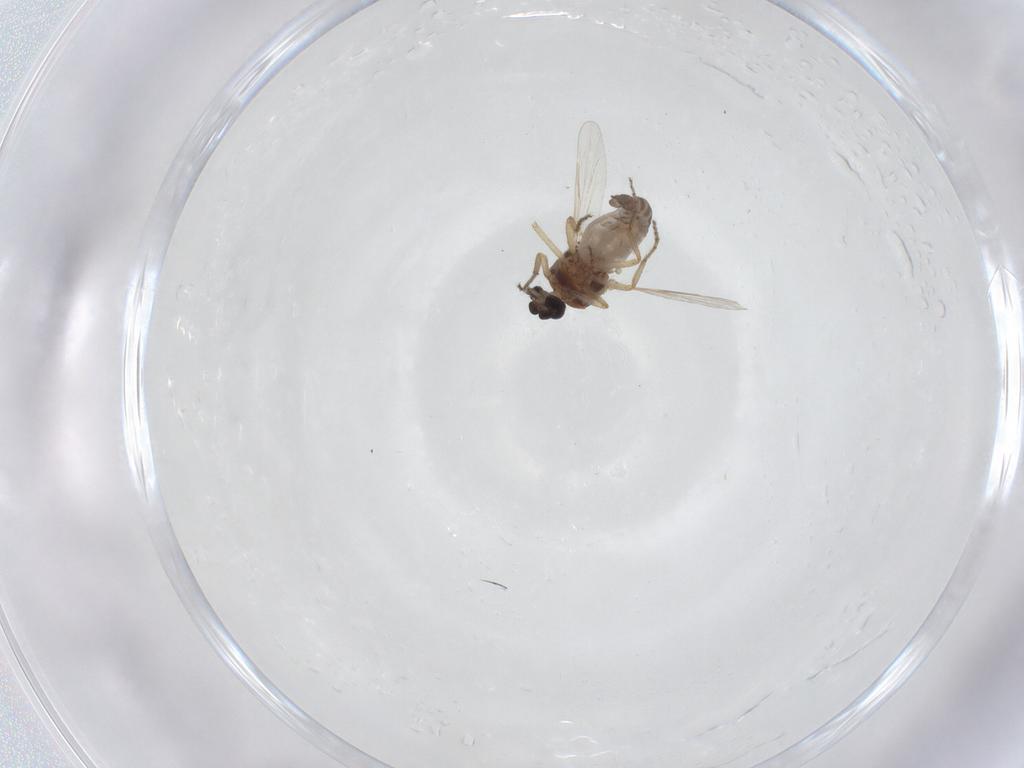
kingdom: Animalia
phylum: Arthropoda
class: Insecta
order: Diptera
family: Ceratopogonidae
